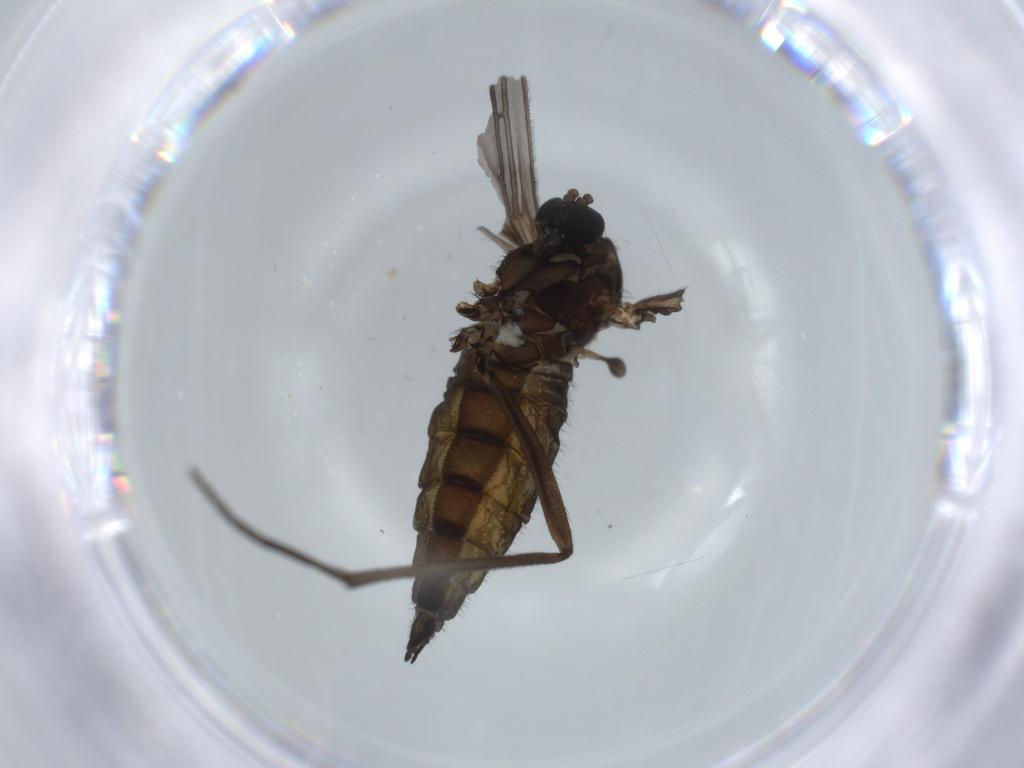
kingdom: Animalia
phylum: Arthropoda
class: Insecta
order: Diptera
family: Sciaridae
